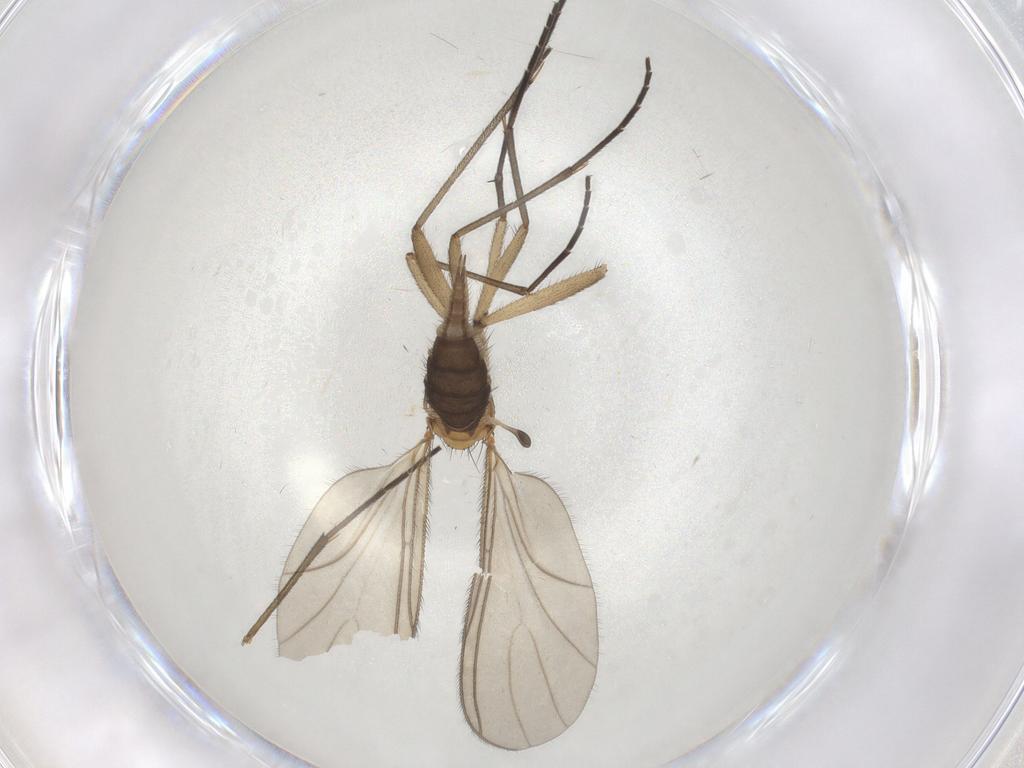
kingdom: Animalia
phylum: Arthropoda
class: Insecta
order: Diptera
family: Sciaridae
